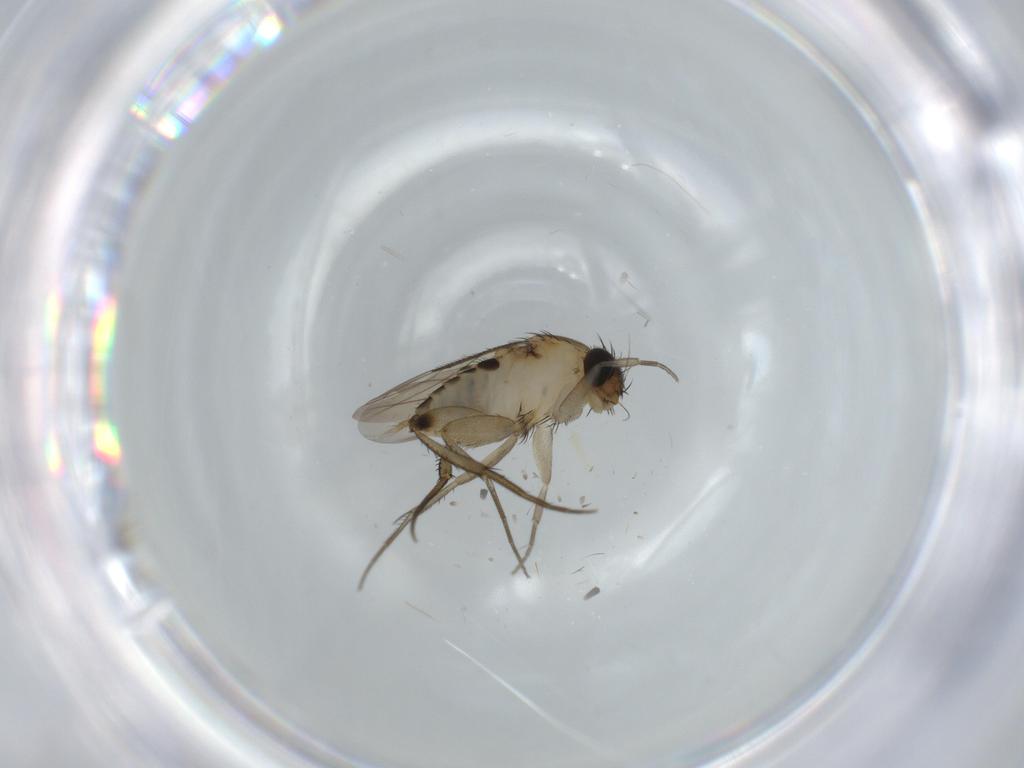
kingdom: Animalia
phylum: Arthropoda
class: Insecta
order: Diptera
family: Phoridae
